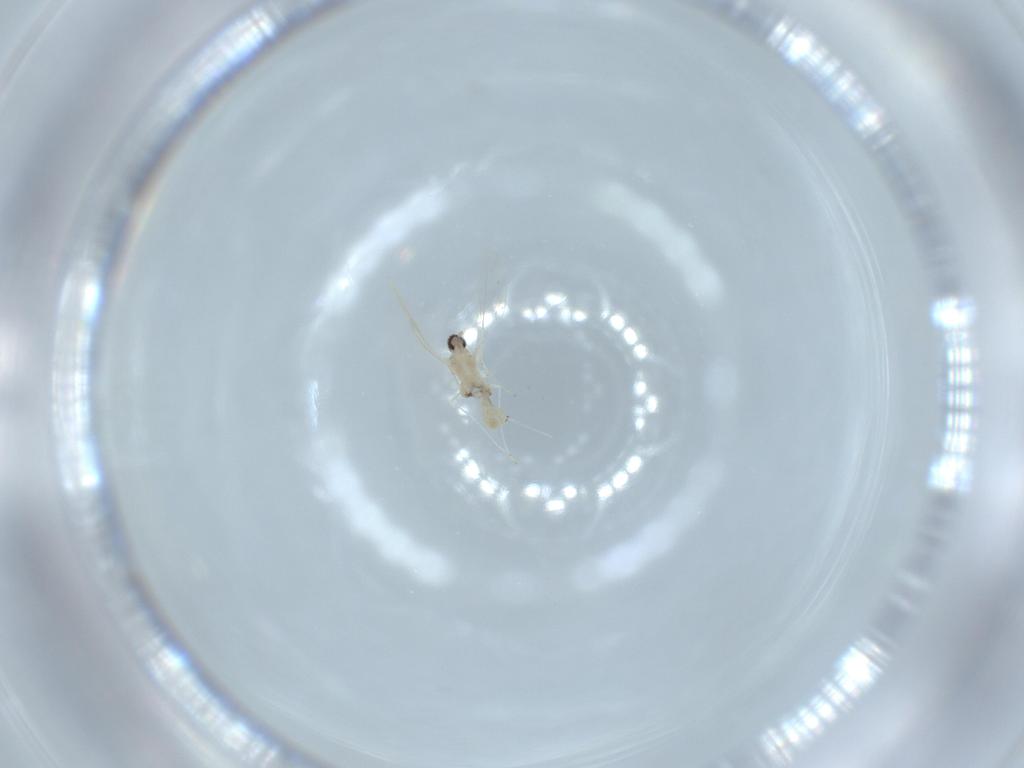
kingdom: Animalia
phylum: Arthropoda
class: Insecta
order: Diptera
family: Cecidomyiidae
